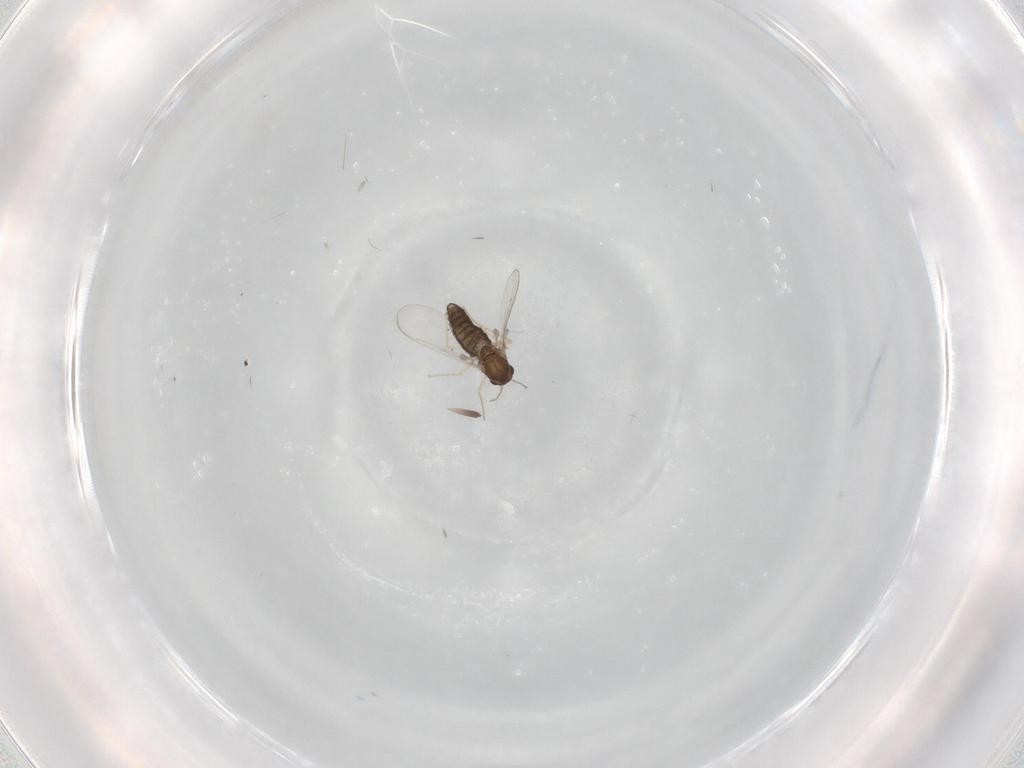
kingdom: Animalia
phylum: Arthropoda
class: Insecta
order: Diptera
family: Chironomidae
